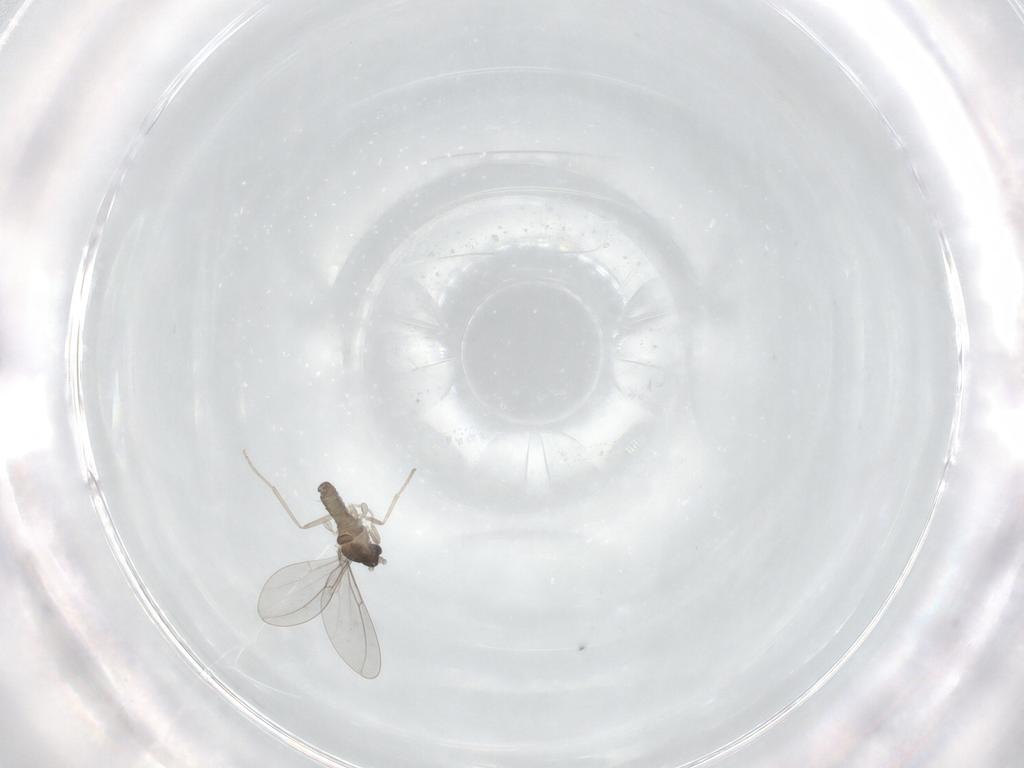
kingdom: Animalia
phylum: Arthropoda
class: Insecta
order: Diptera
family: Cecidomyiidae
